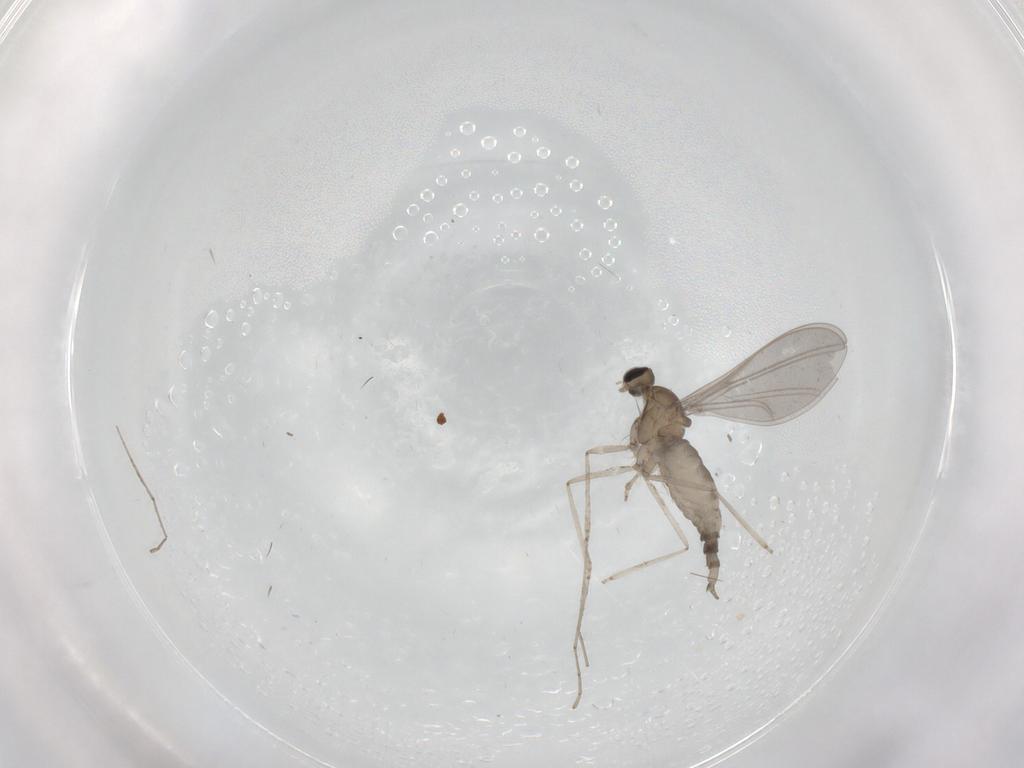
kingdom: Animalia
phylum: Arthropoda
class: Insecta
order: Diptera
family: Cecidomyiidae
